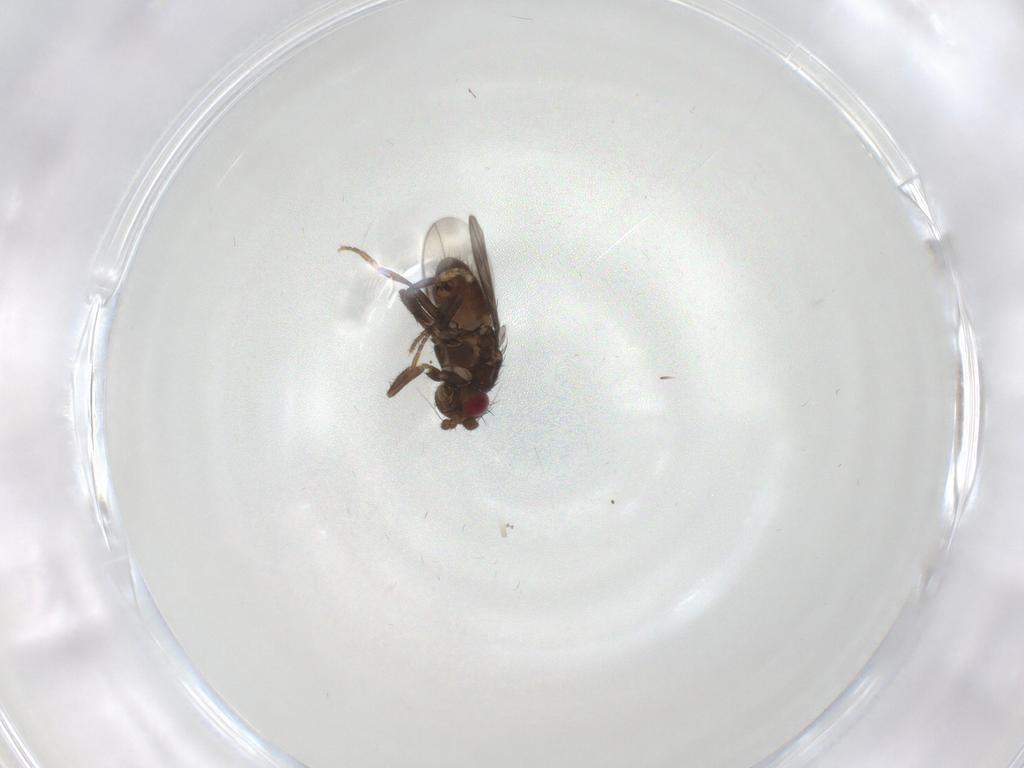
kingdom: Animalia
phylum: Arthropoda
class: Insecta
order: Diptera
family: Sphaeroceridae
